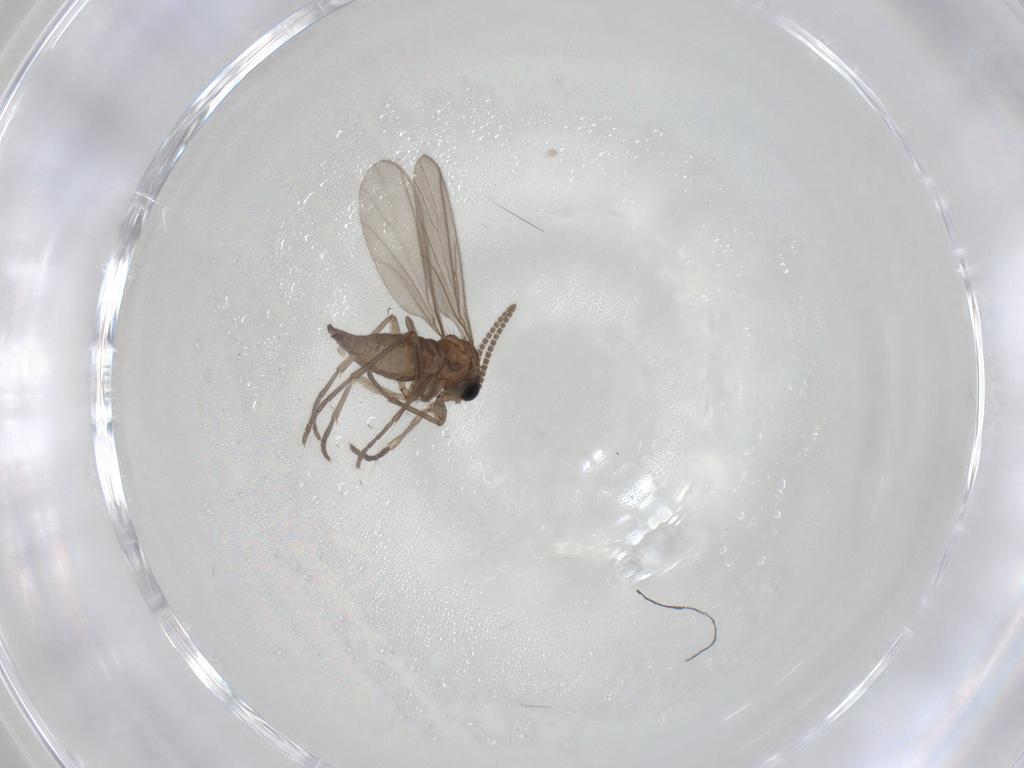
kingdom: Animalia
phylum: Arthropoda
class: Insecta
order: Diptera
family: Sciaridae
